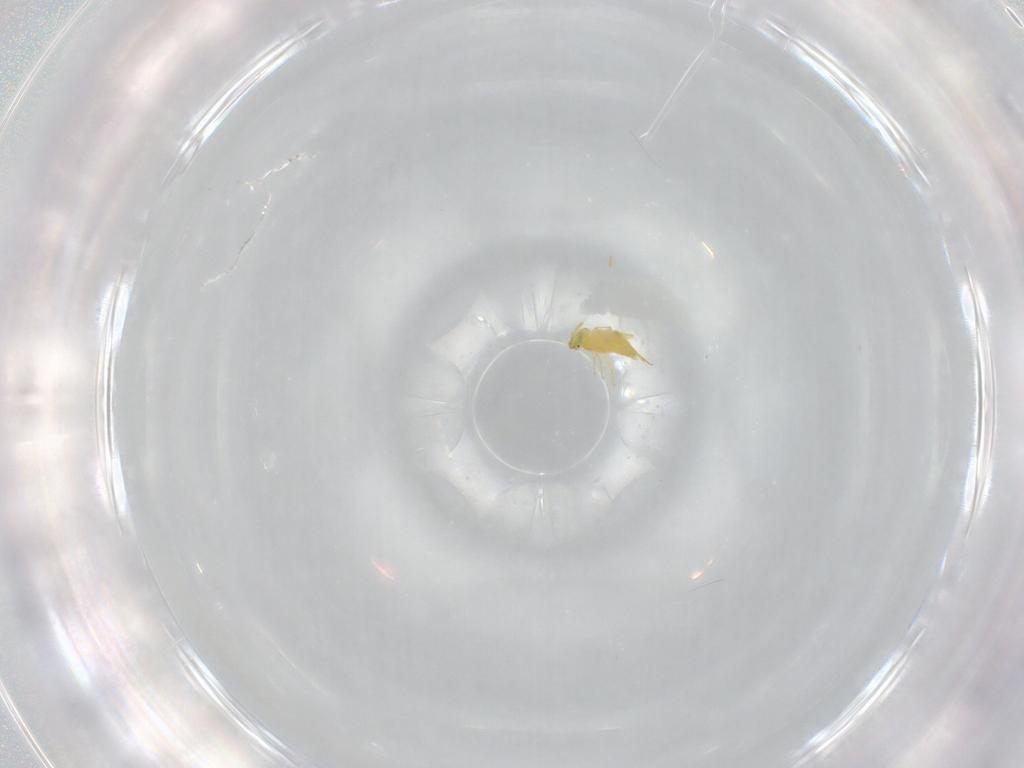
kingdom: Animalia
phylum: Arthropoda
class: Insecta
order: Hymenoptera
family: Aphelinidae
